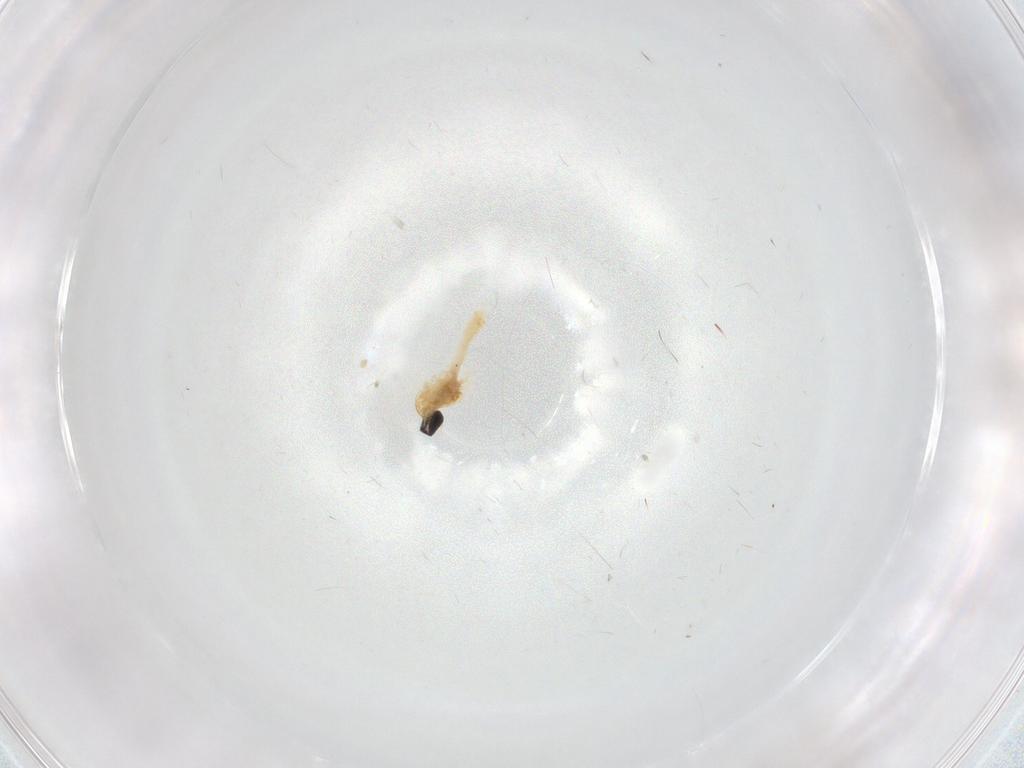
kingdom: Animalia
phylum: Arthropoda
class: Insecta
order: Diptera
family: Cecidomyiidae
